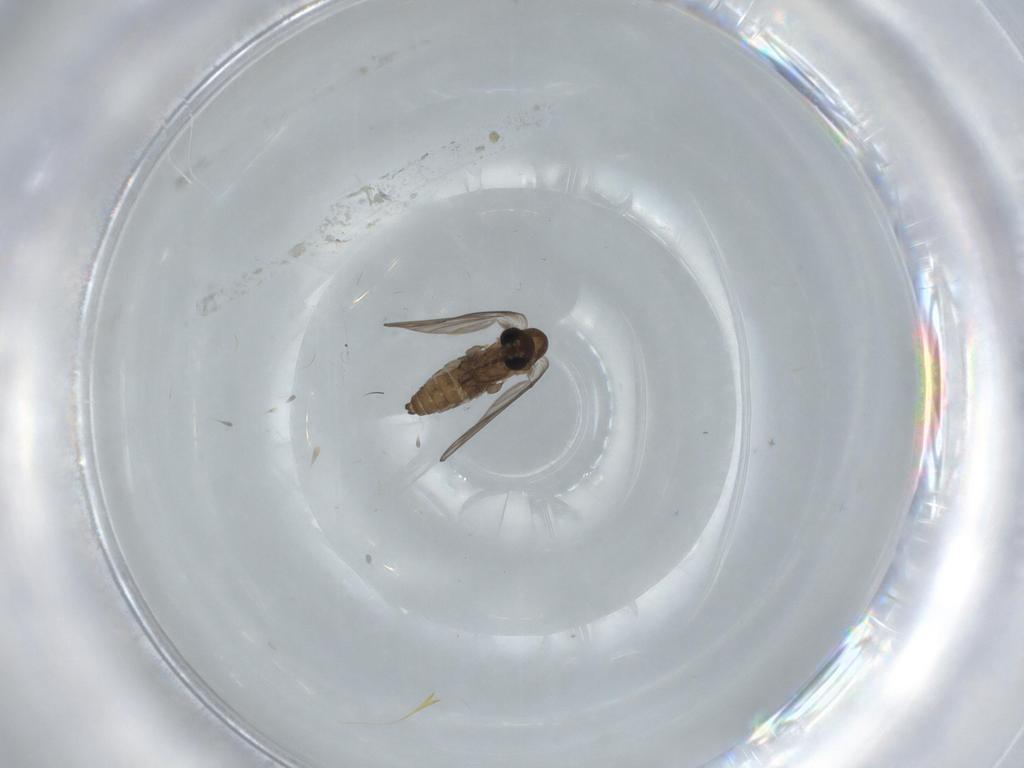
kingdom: Animalia
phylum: Arthropoda
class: Insecta
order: Diptera
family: Psychodidae
